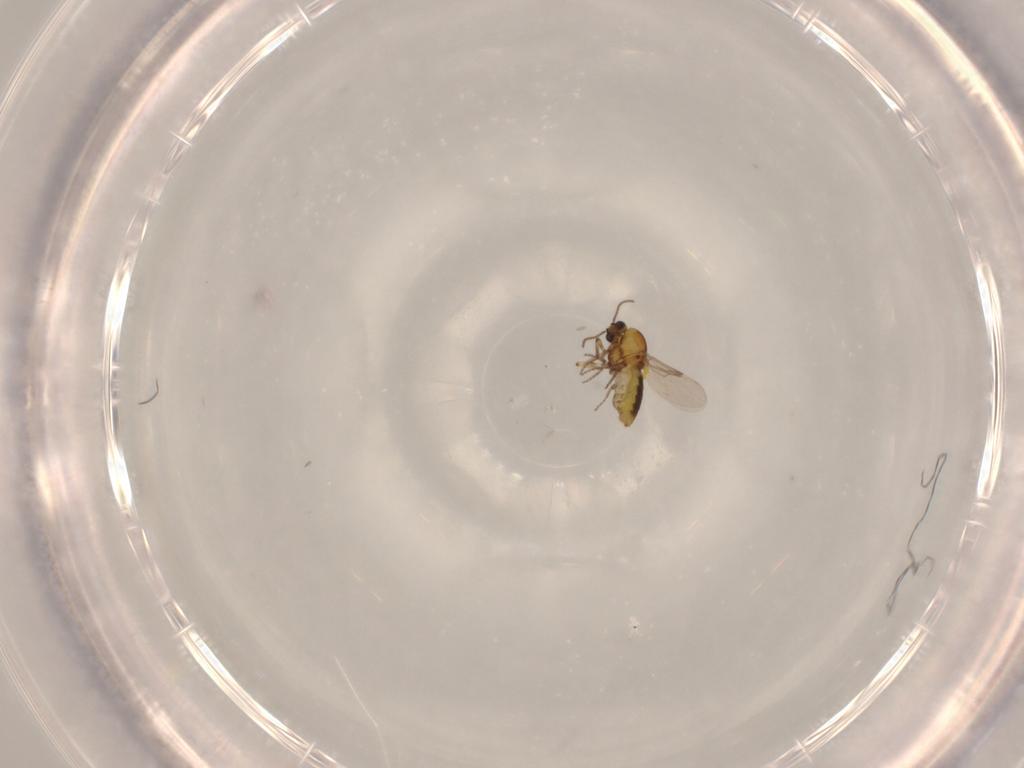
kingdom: Animalia
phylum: Arthropoda
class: Insecta
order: Diptera
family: Ceratopogonidae
